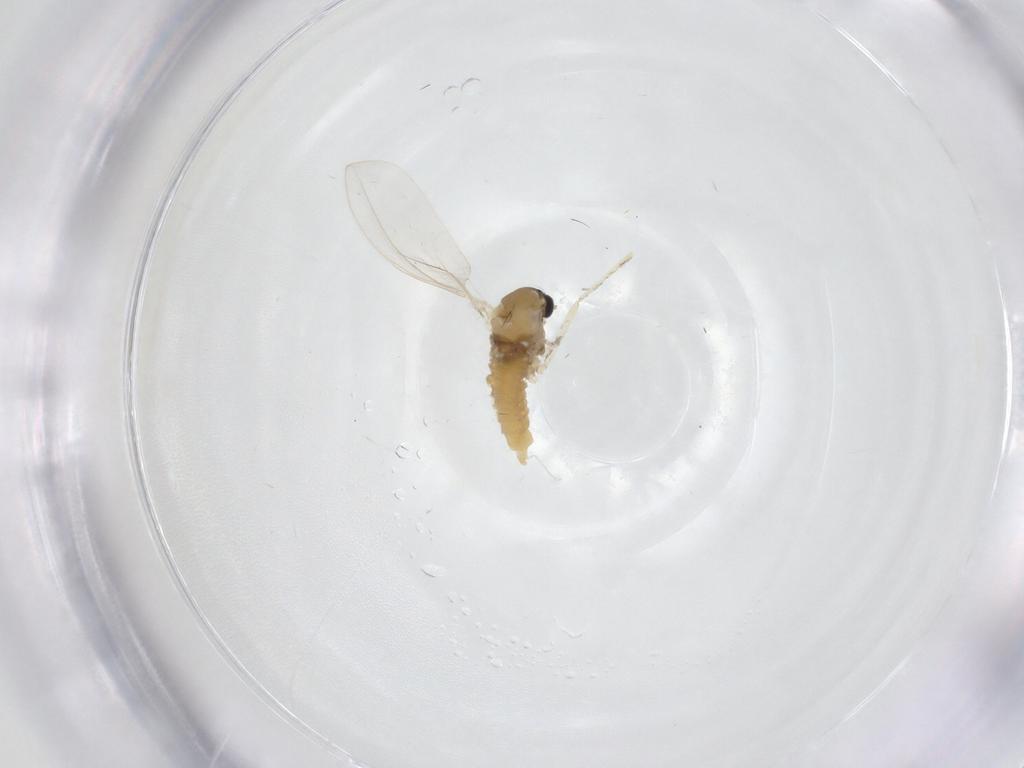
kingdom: Animalia
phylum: Arthropoda
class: Insecta
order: Diptera
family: Cecidomyiidae
